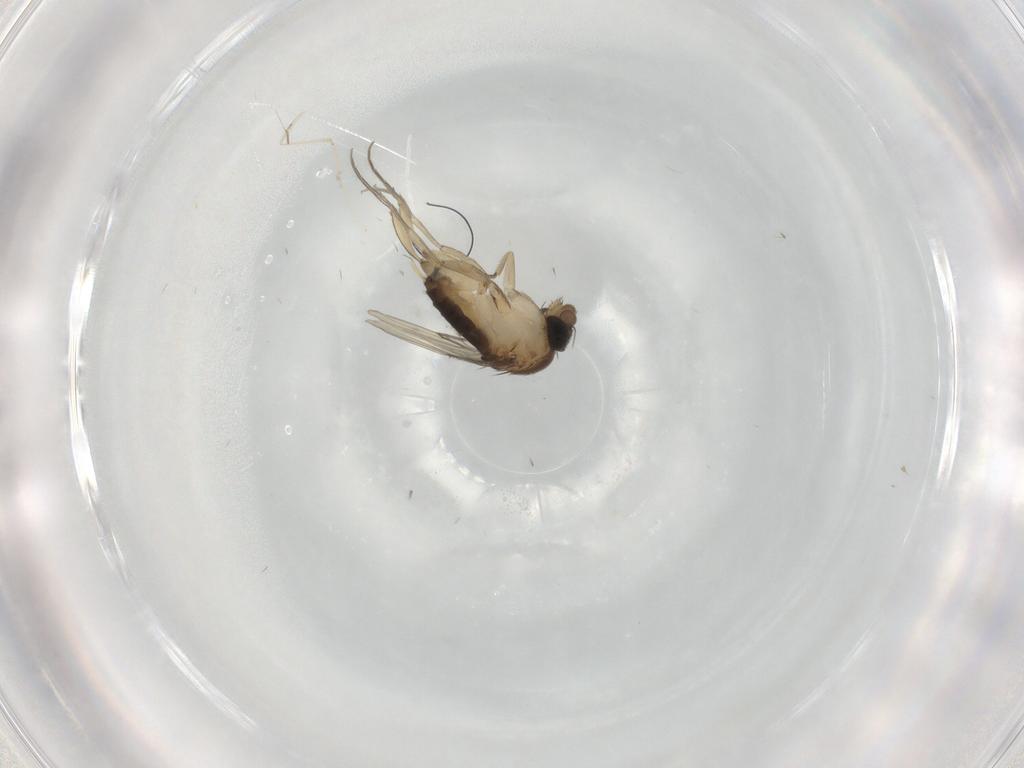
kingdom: Animalia
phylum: Arthropoda
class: Insecta
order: Diptera
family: Phoridae
